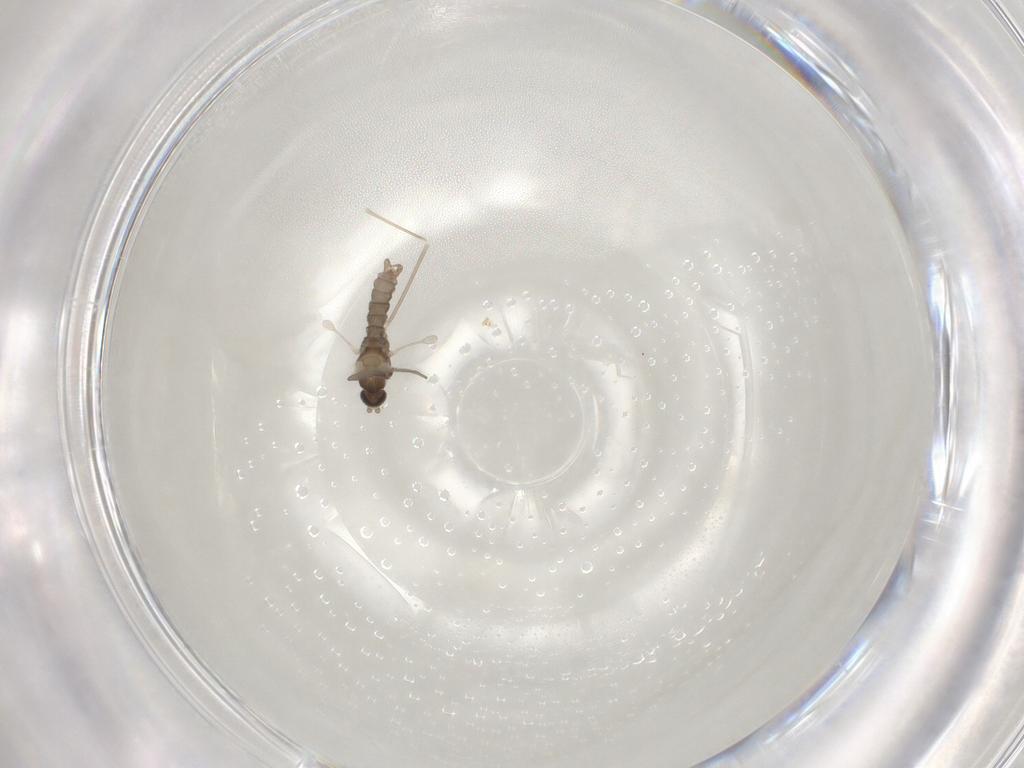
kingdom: Animalia
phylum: Arthropoda
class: Insecta
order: Diptera
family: Cecidomyiidae
